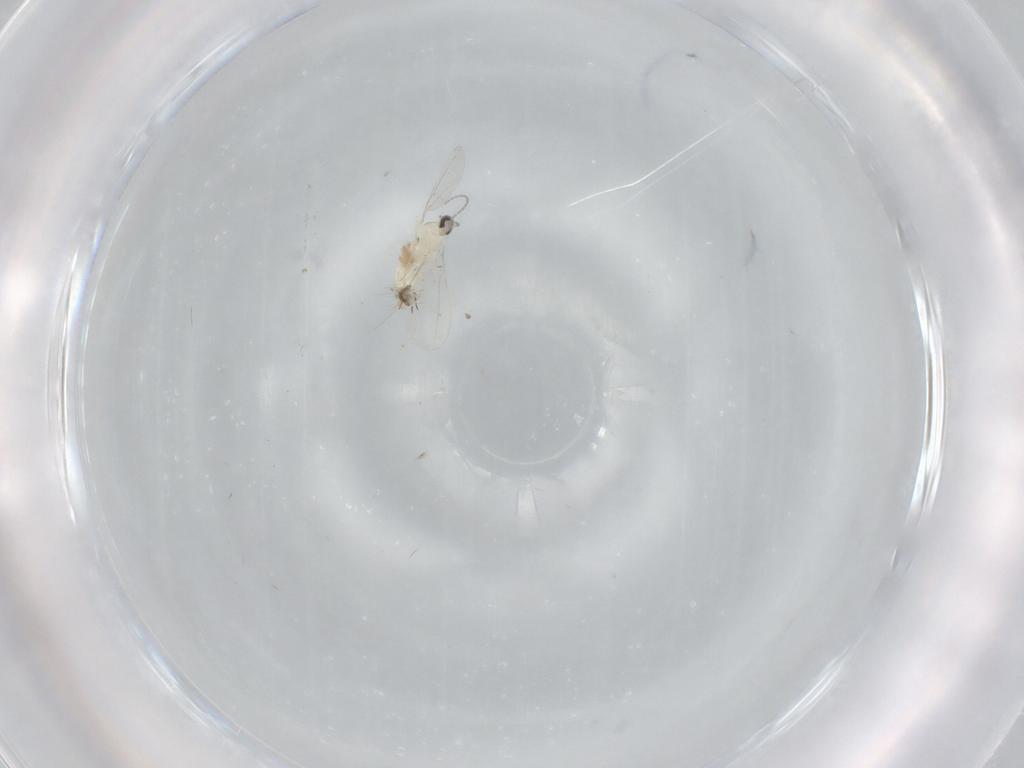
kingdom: Animalia
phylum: Arthropoda
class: Insecta
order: Diptera
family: Cecidomyiidae
